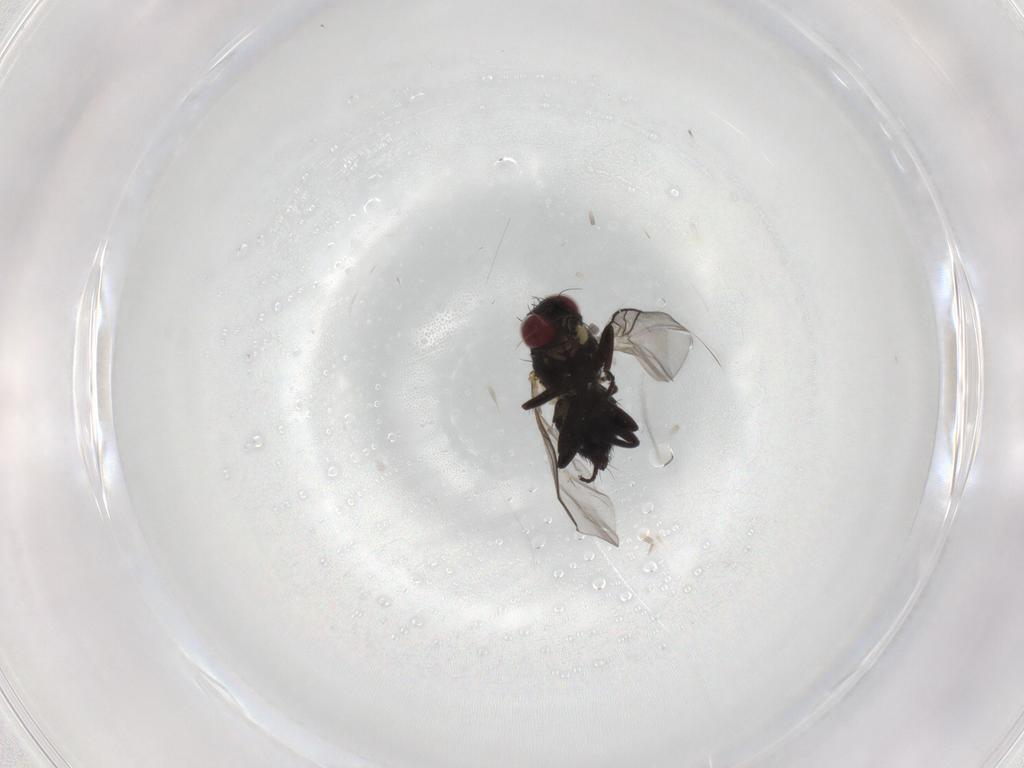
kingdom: Animalia
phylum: Arthropoda
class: Insecta
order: Diptera
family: Cecidomyiidae
